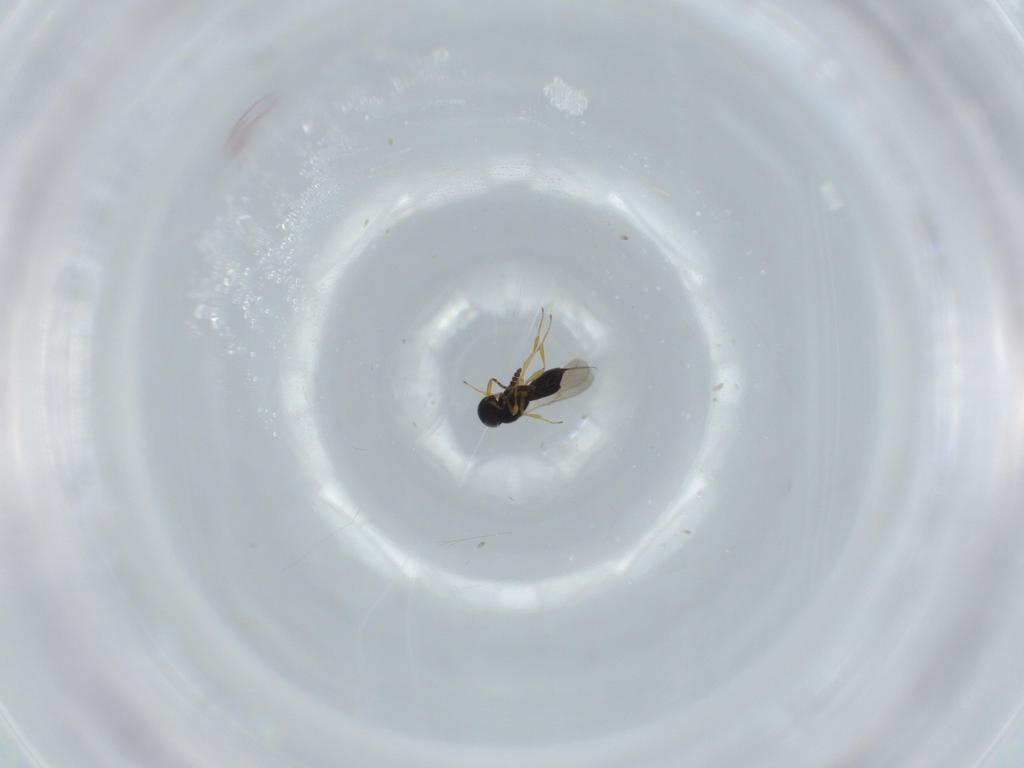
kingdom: Animalia
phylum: Arthropoda
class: Insecta
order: Hymenoptera
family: Scelionidae
